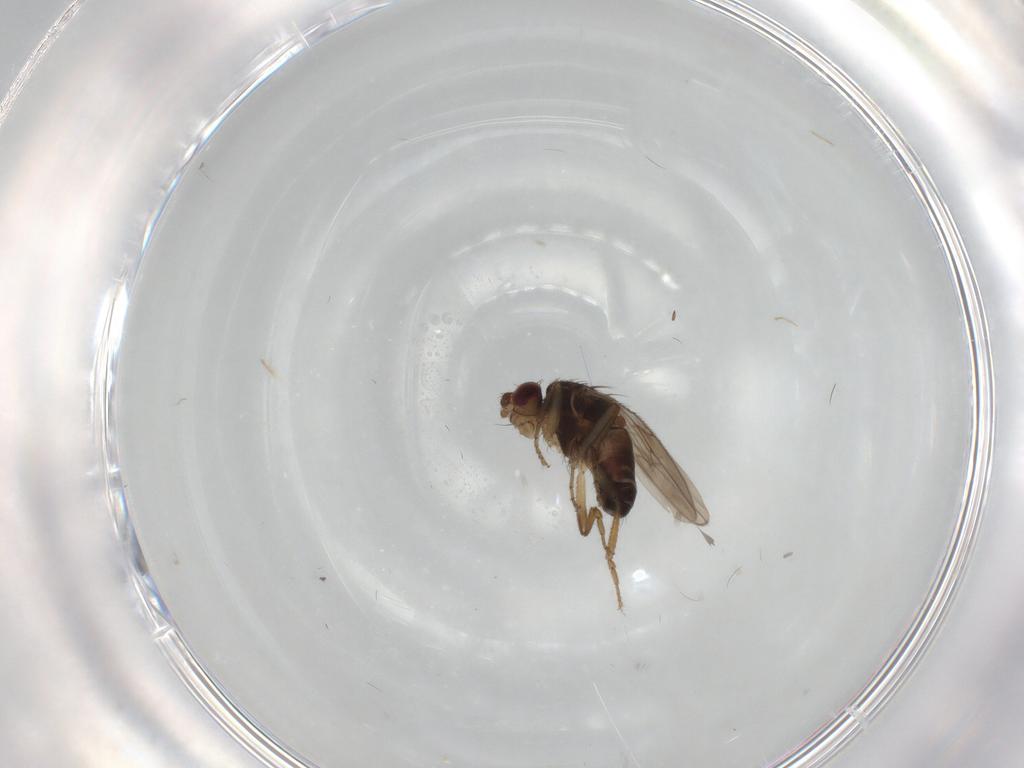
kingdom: Animalia
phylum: Arthropoda
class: Insecta
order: Diptera
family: Sphaeroceridae
